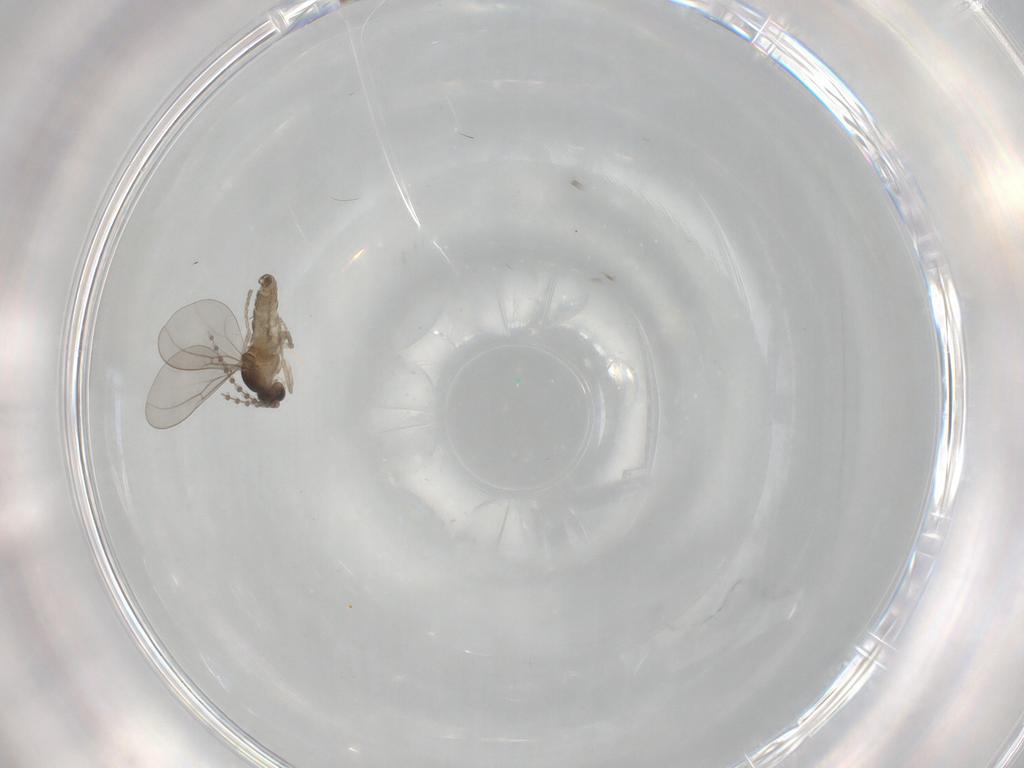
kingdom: Animalia
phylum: Arthropoda
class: Insecta
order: Diptera
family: Cecidomyiidae
